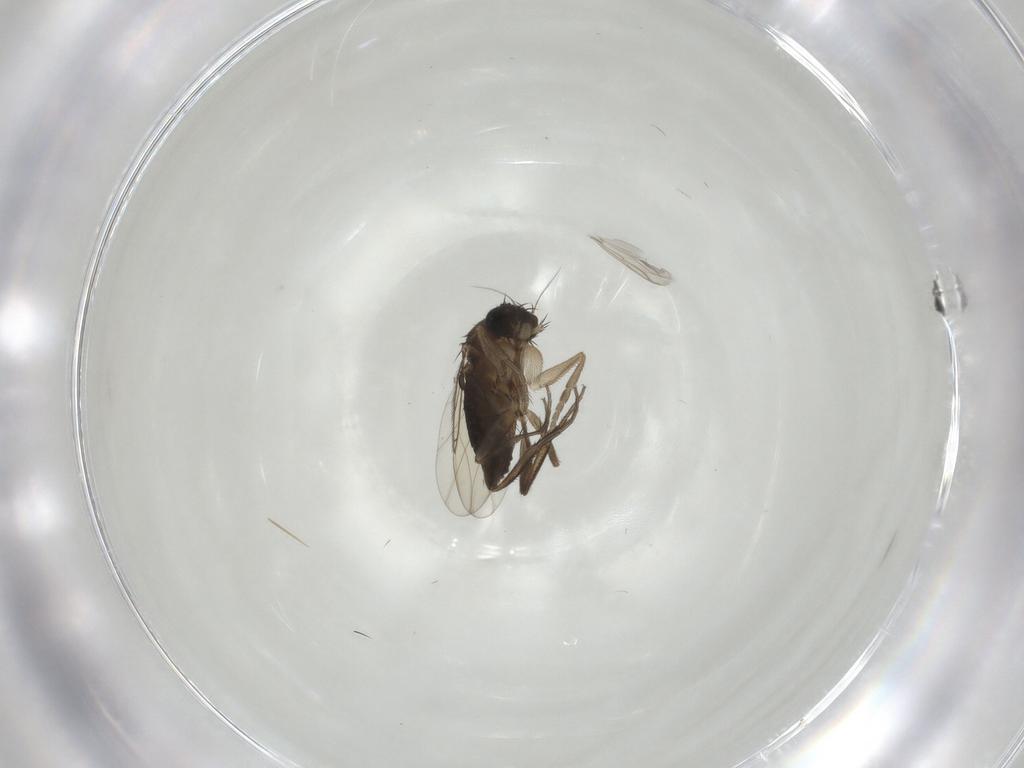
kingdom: Animalia
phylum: Arthropoda
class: Insecta
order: Diptera
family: Phoridae
